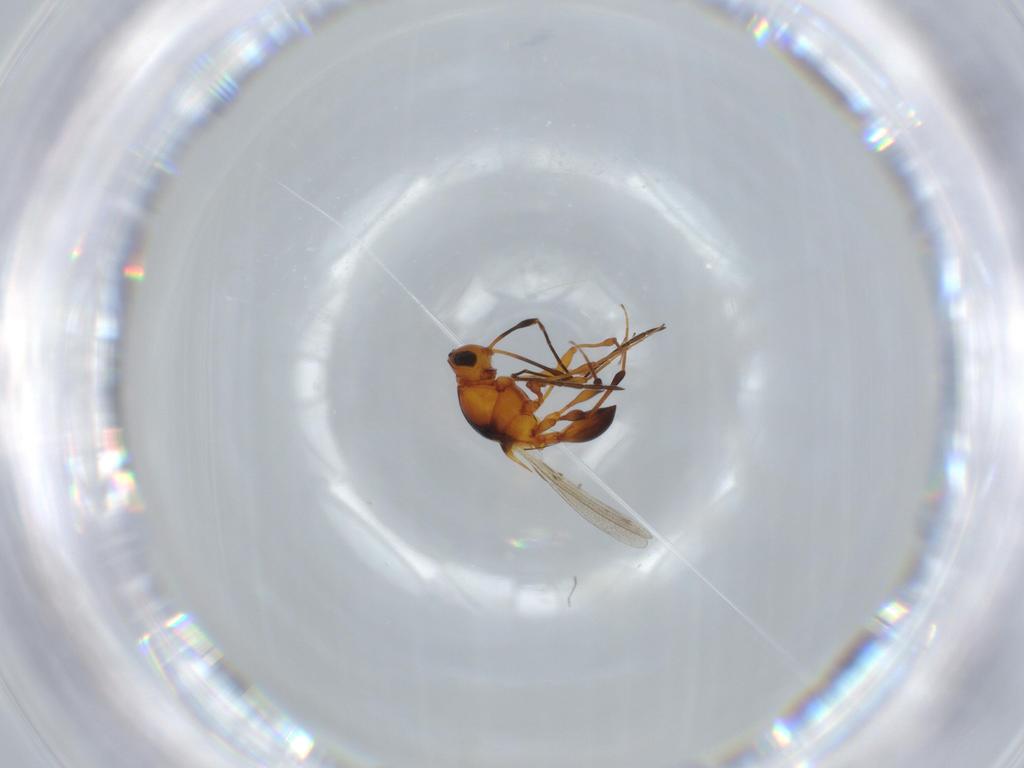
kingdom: Animalia
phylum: Arthropoda
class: Insecta
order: Hymenoptera
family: Platygastridae
